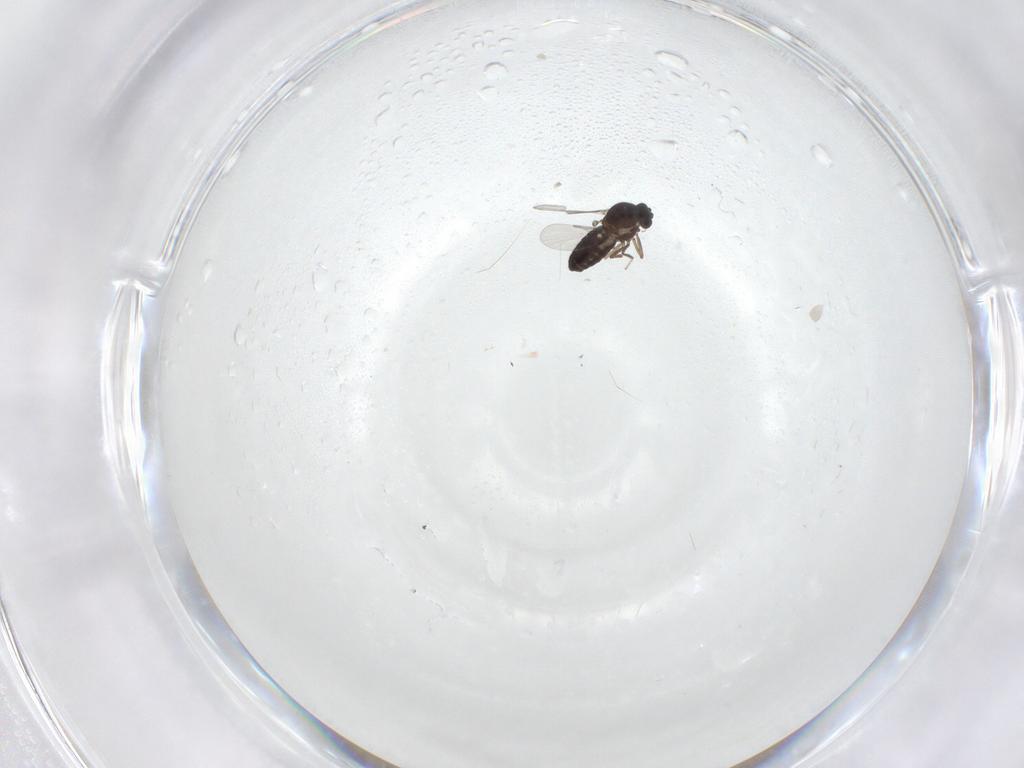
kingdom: Animalia
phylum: Arthropoda
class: Insecta
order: Diptera
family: Ceratopogonidae
